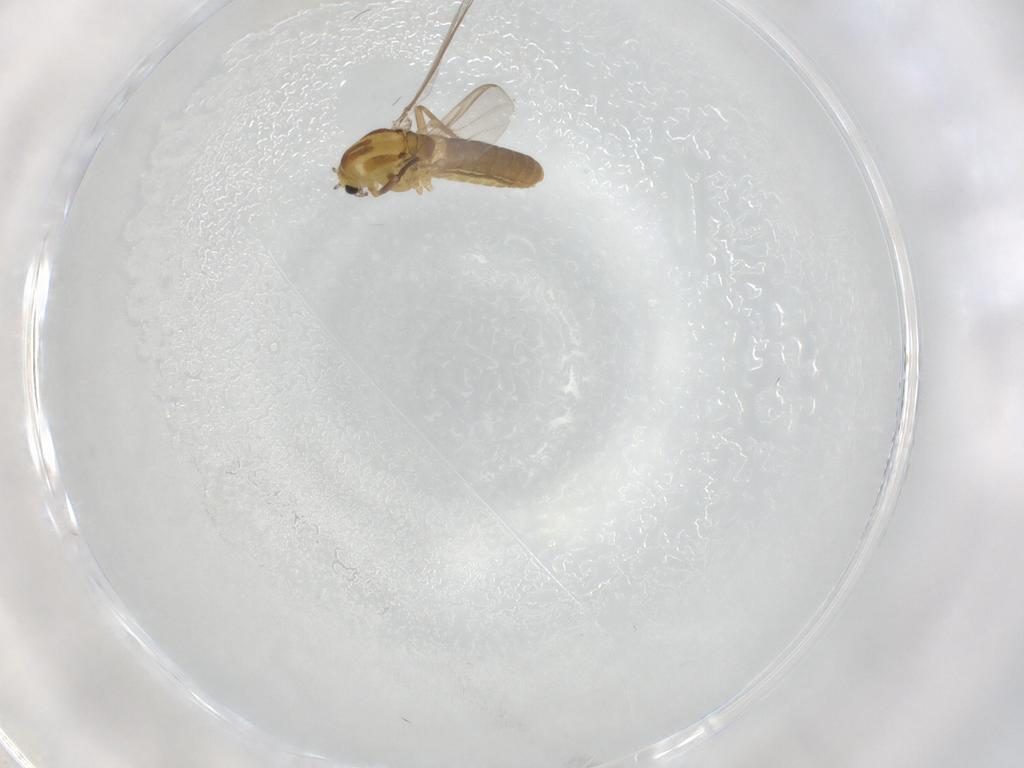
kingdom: Animalia
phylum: Arthropoda
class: Insecta
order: Diptera
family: Chironomidae
